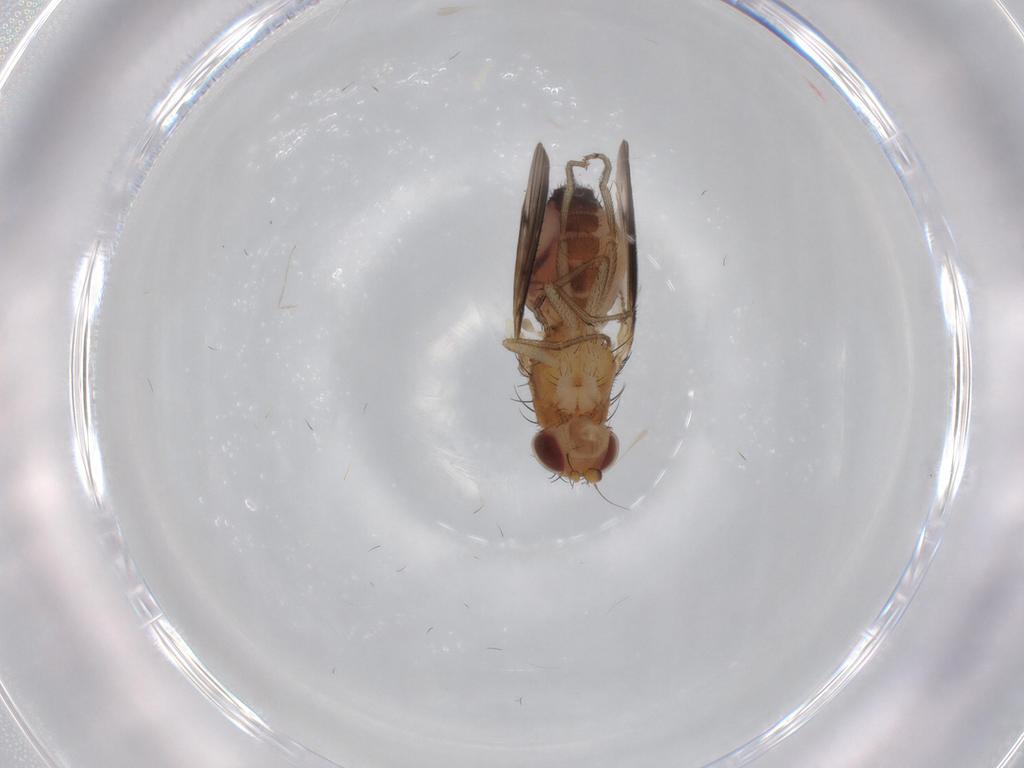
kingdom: Animalia
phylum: Arthropoda
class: Insecta
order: Diptera
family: Heleomyzidae
